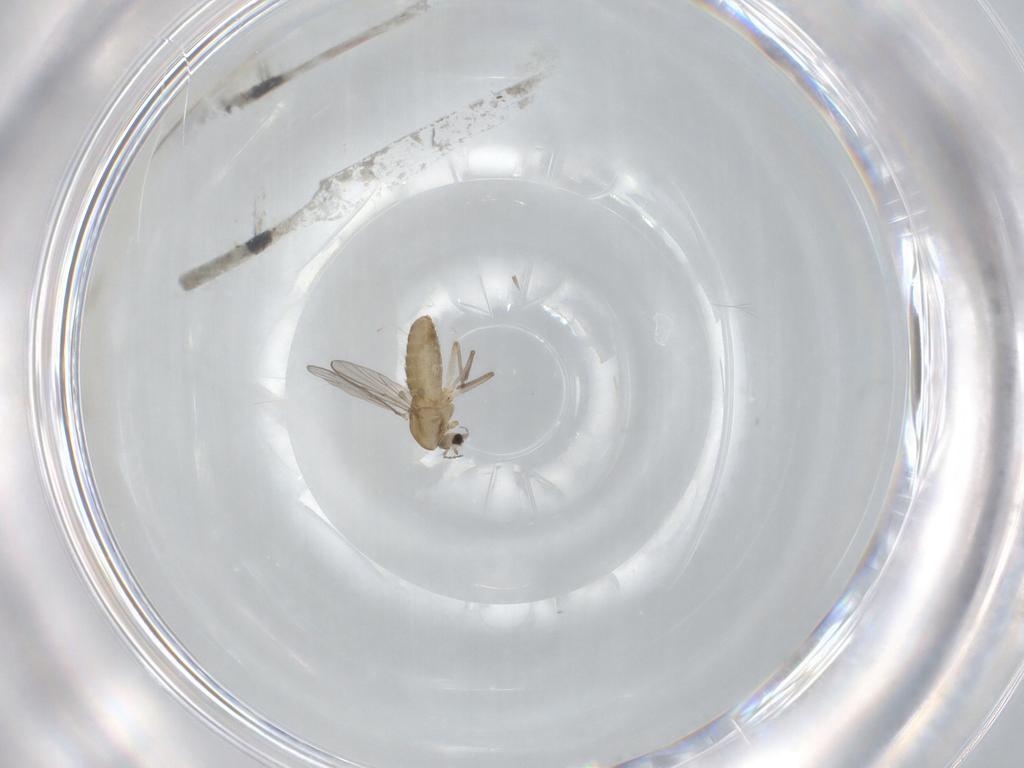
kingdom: Animalia
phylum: Arthropoda
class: Insecta
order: Diptera
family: Chironomidae
